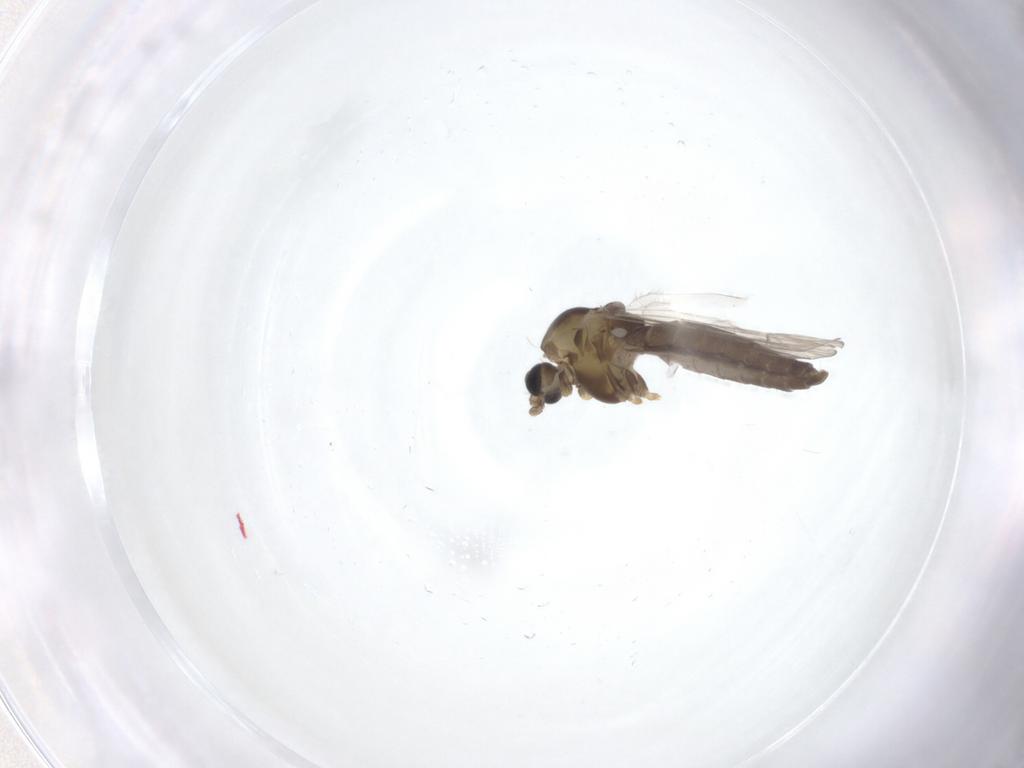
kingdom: Animalia
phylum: Arthropoda
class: Insecta
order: Diptera
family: Chironomidae
